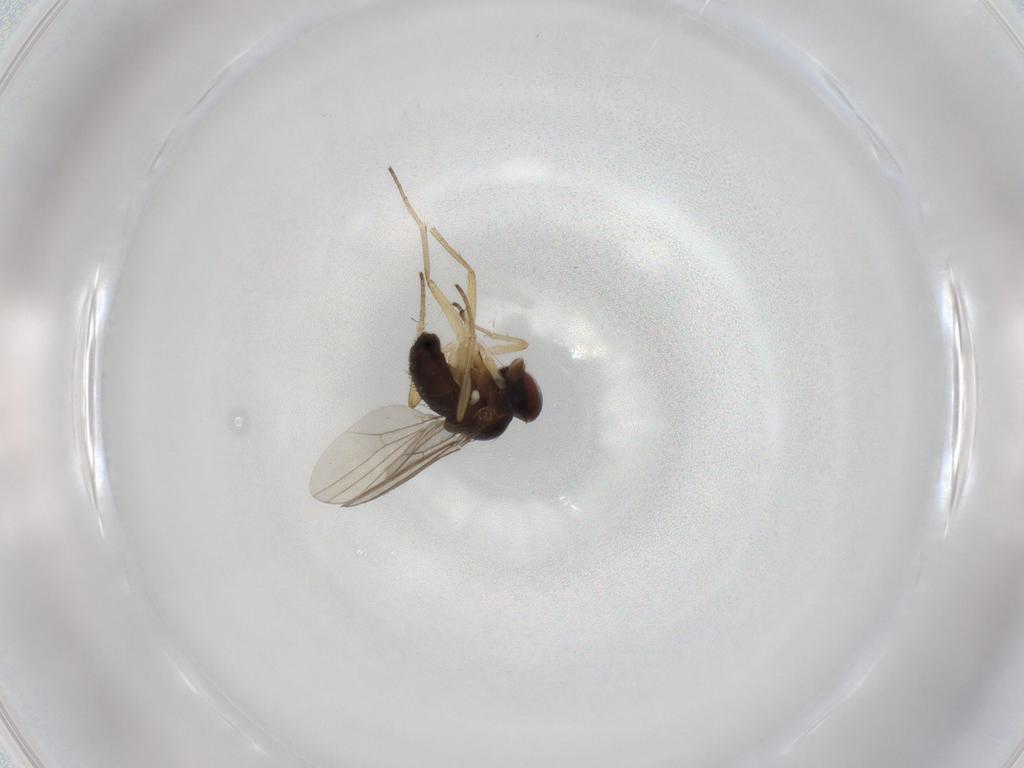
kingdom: Animalia
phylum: Arthropoda
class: Insecta
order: Diptera
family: Dolichopodidae
